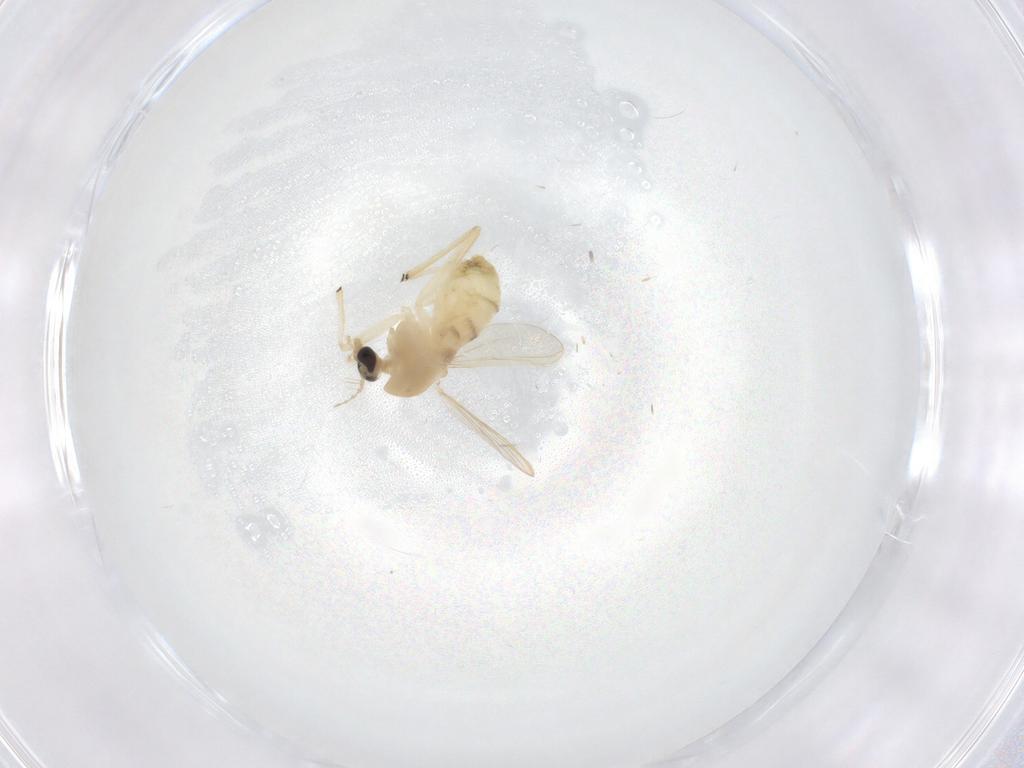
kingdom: Animalia
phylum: Arthropoda
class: Insecta
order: Diptera
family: Chironomidae
